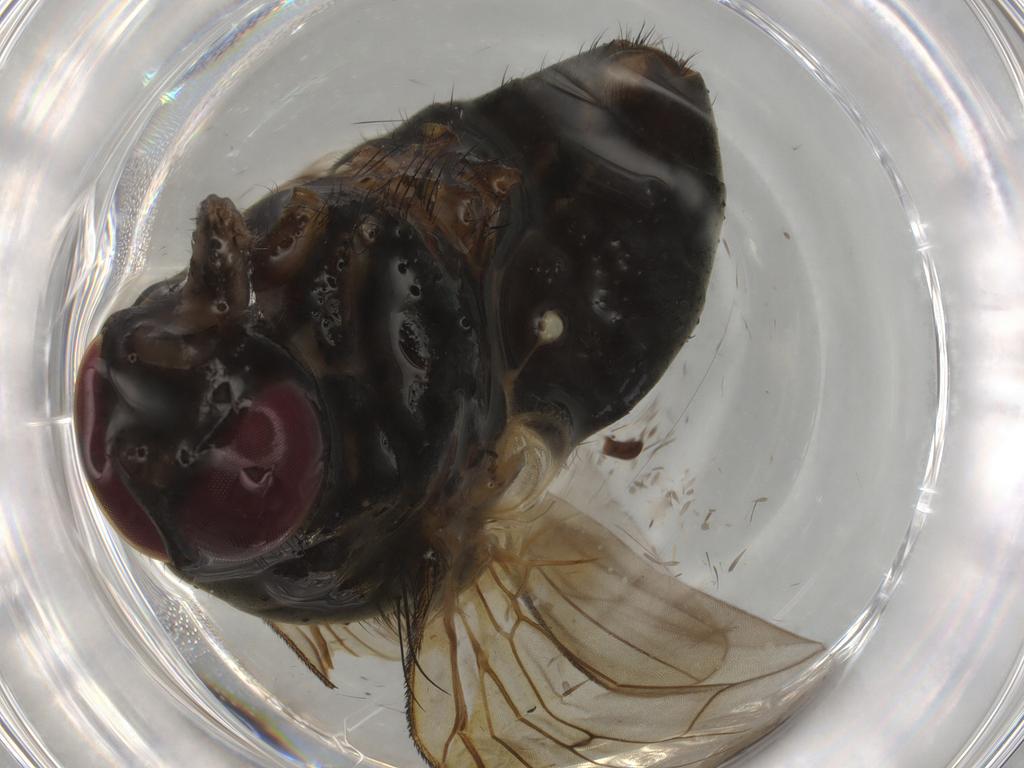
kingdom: Animalia
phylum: Arthropoda
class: Insecta
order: Diptera
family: Muscidae
